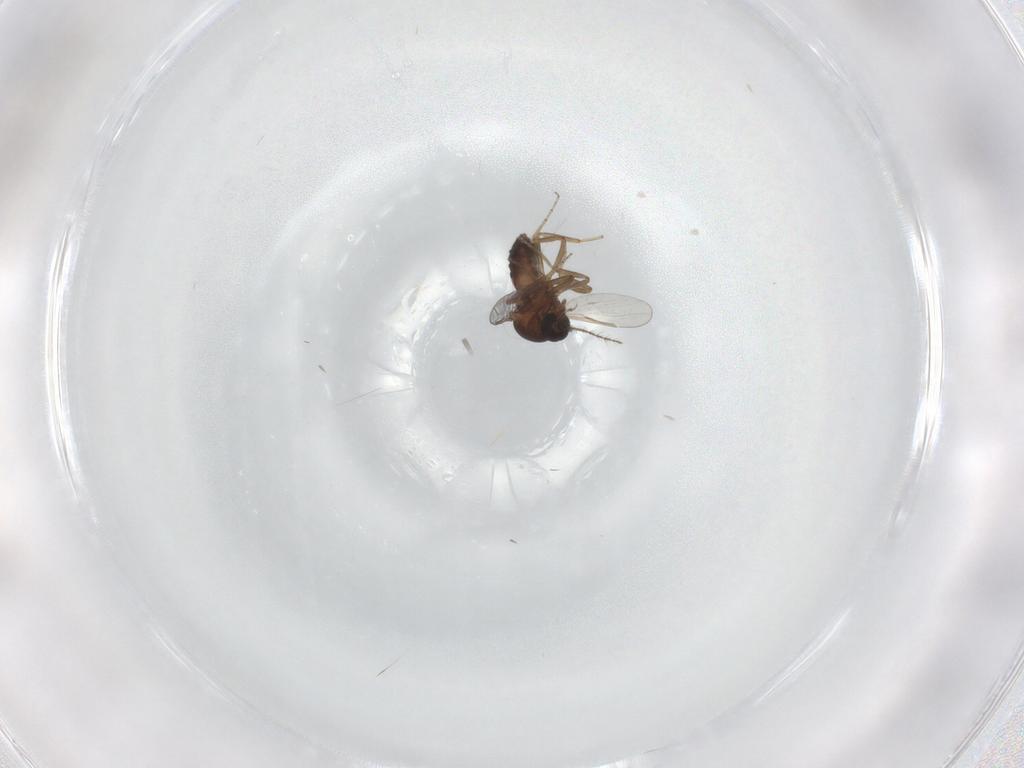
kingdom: Animalia
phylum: Arthropoda
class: Insecta
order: Diptera
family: Ceratopogonidae
